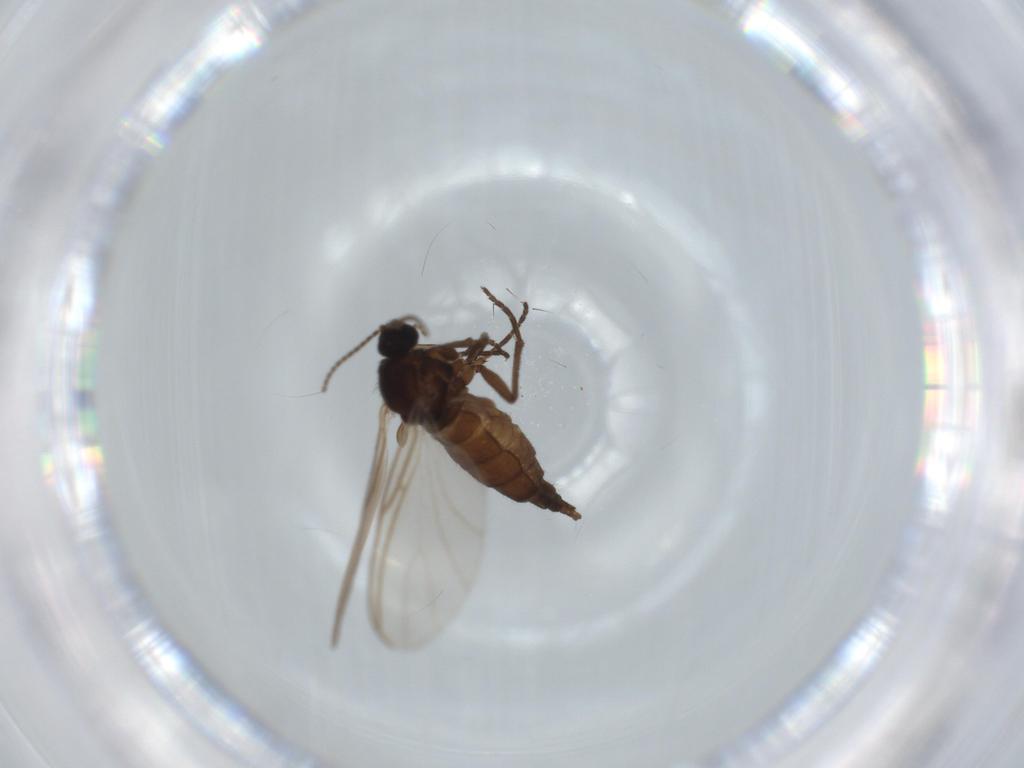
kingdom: Animalia
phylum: Arthropoda
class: Insecta
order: Diptera
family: Sciaridae
